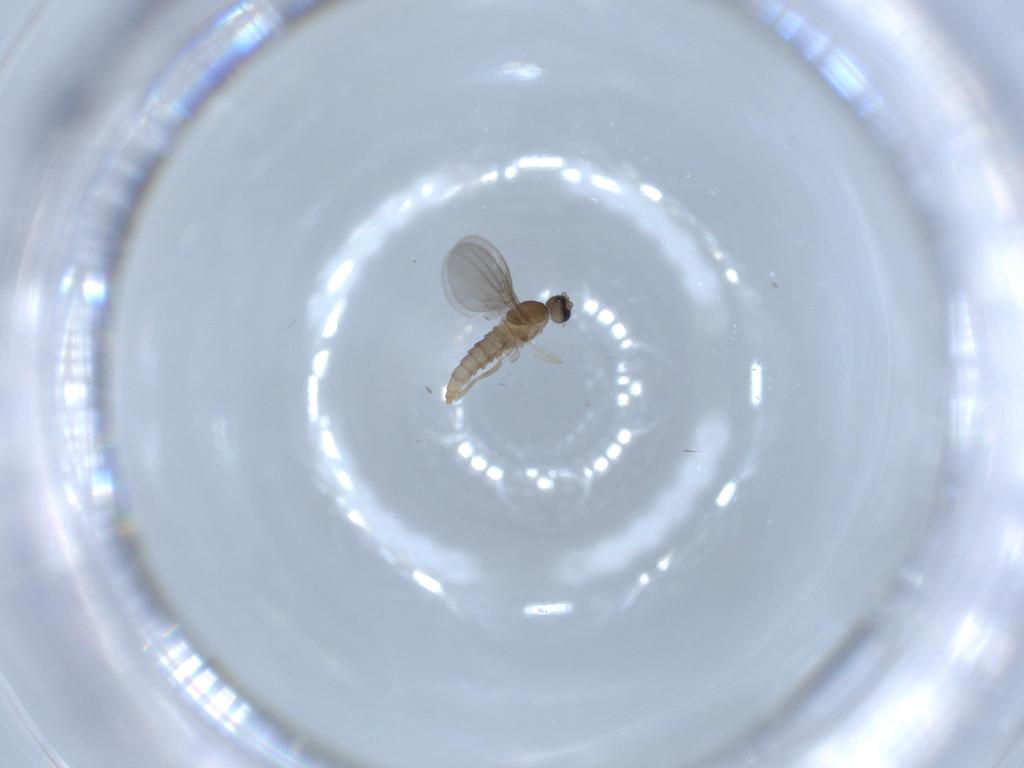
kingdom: Animalia
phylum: Arthropoda
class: Insecta
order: Diptera
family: Cecidomyiidae
